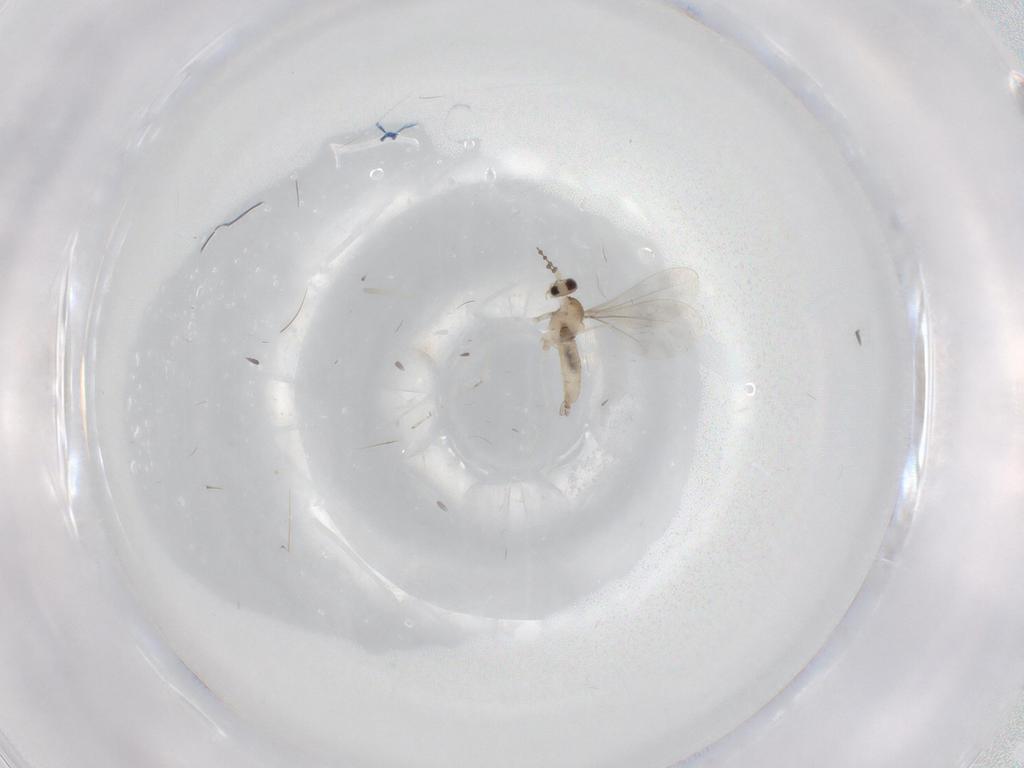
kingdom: Animalia
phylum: Arthropoda
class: Insecta
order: Diptera
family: Cecidomyiidae
